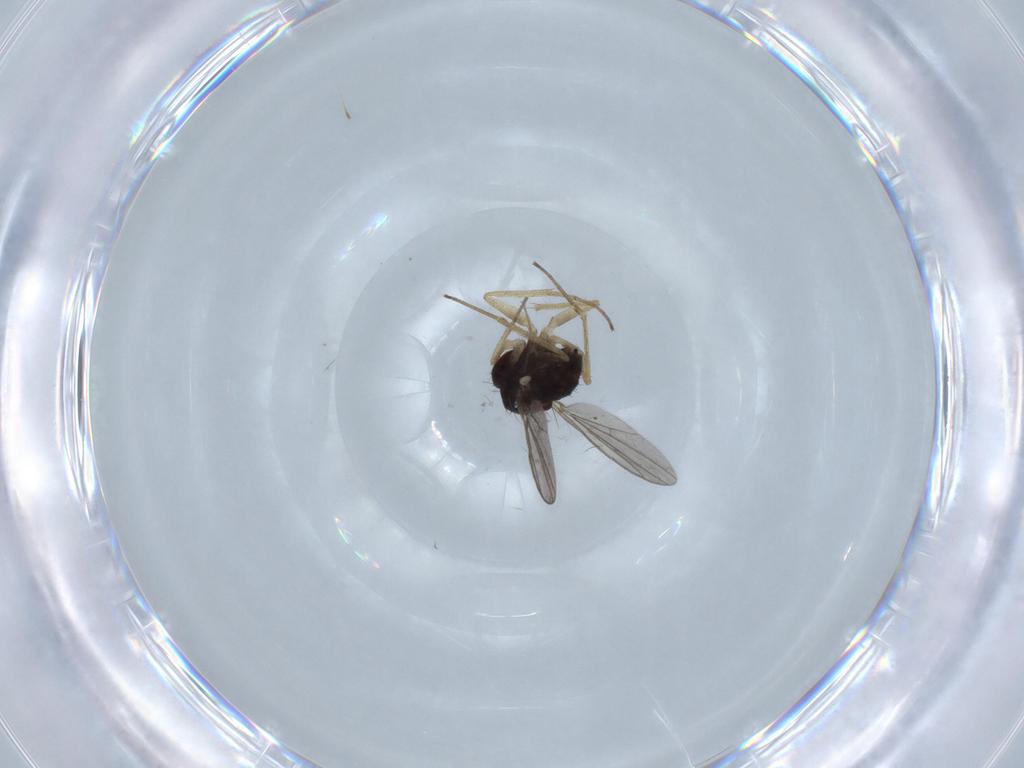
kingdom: Animalia
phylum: Arthropoda
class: Insecta
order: Diptera
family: Dolichopodidae
